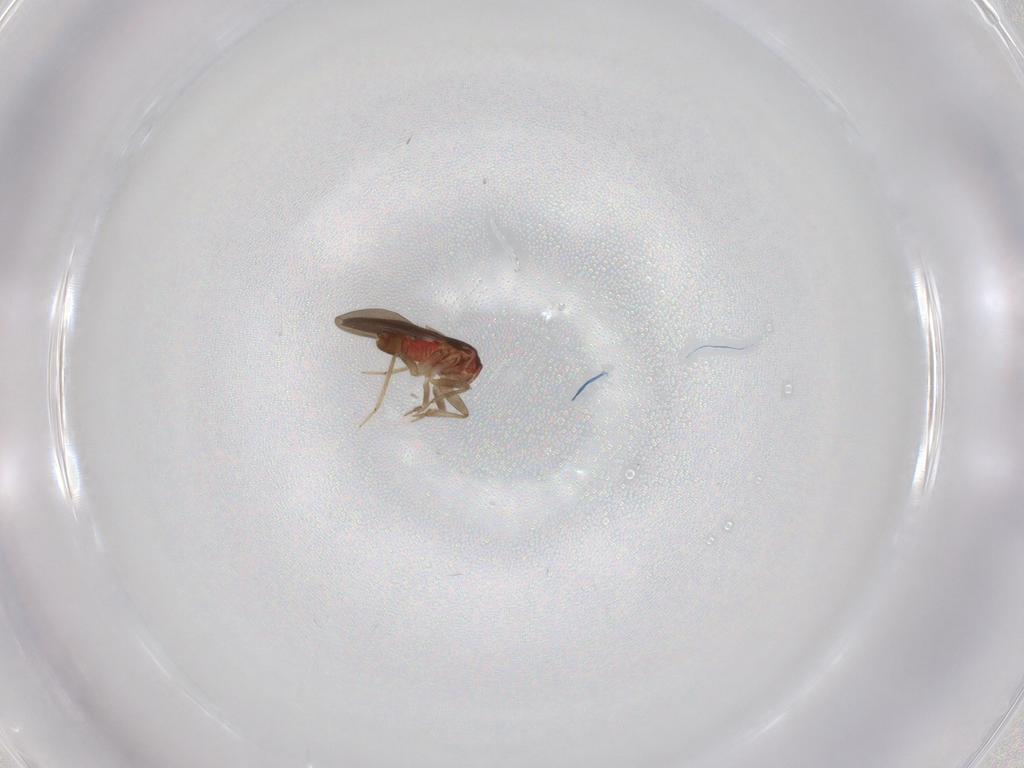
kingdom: Animalia
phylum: Arthropoda
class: Insecta
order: Hemiptera
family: Ceratocombidae
